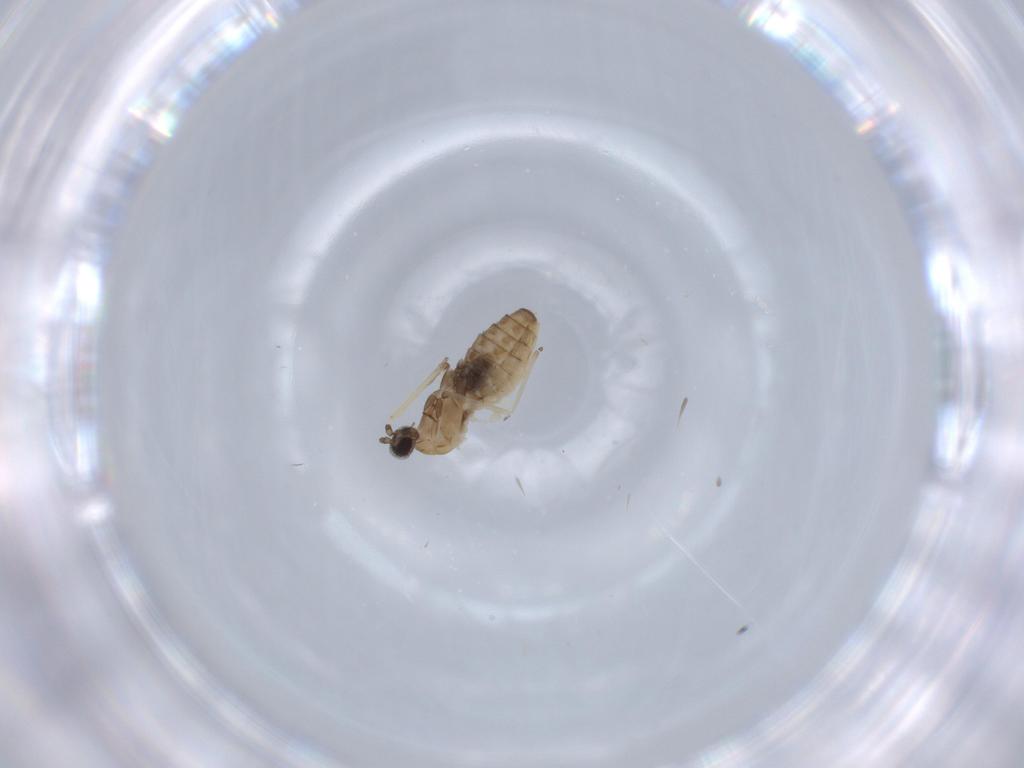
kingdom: Animalia
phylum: Arthropoda
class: Insecta
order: Diptera
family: Cecidomyiidae
